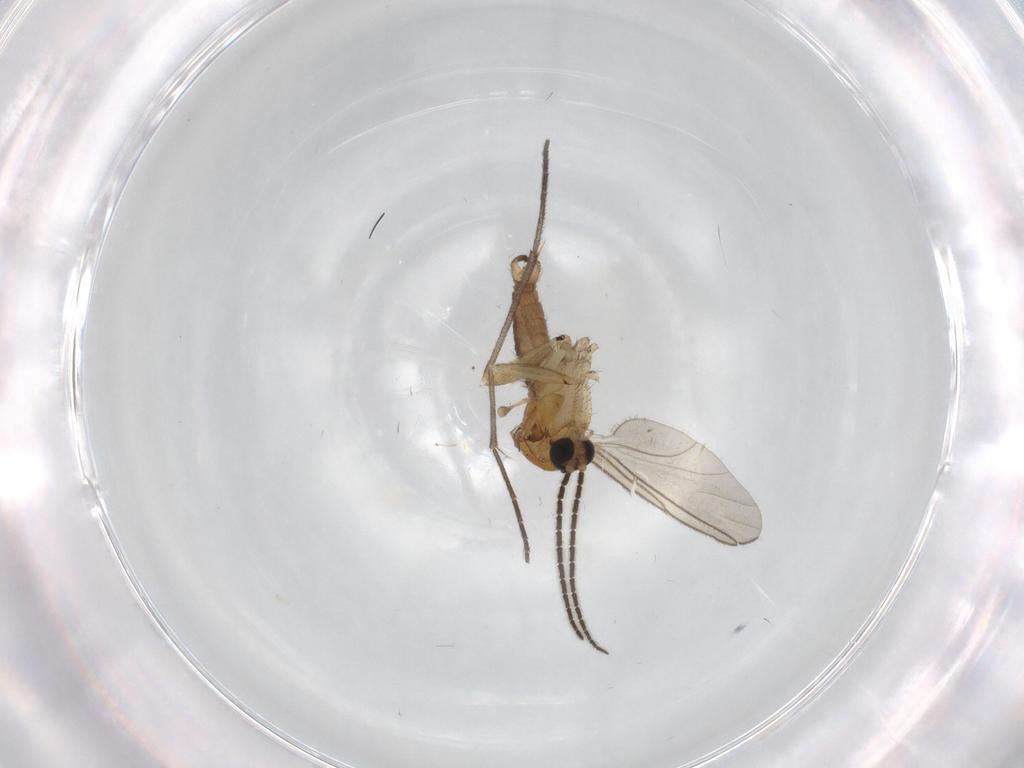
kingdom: Animalia
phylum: Arthropoda
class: Insecta
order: Diptera
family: Sciaridae
